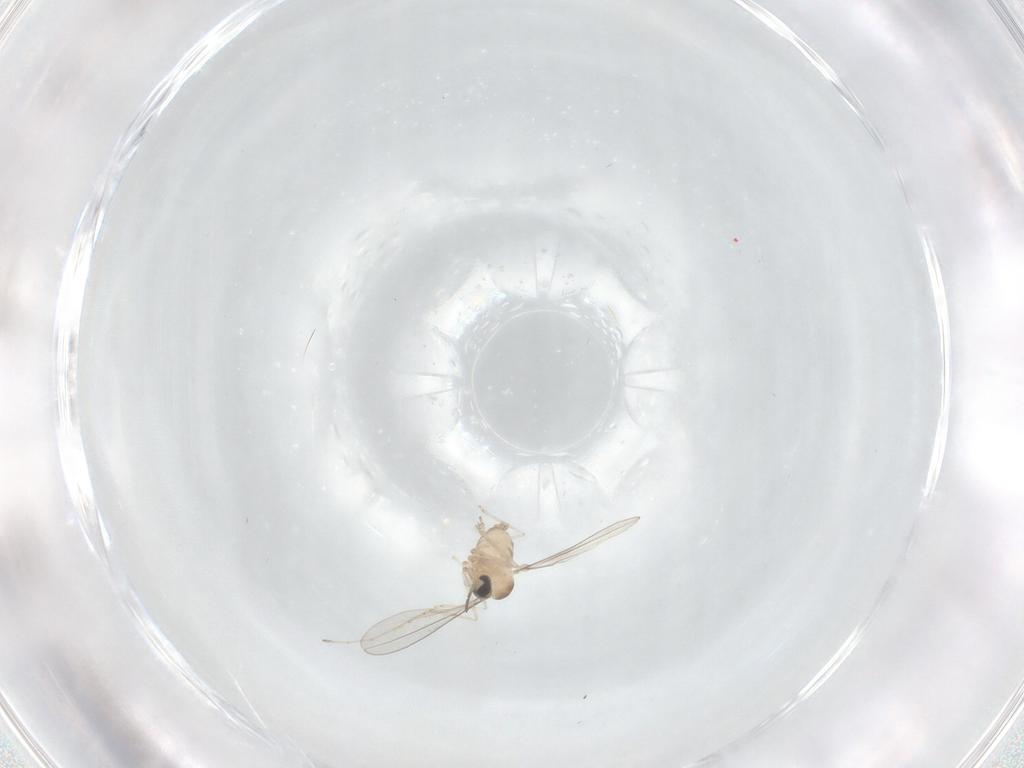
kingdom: Animalia
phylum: Arthropoda
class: Insecta
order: Diptera
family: Cecidomyiidae
